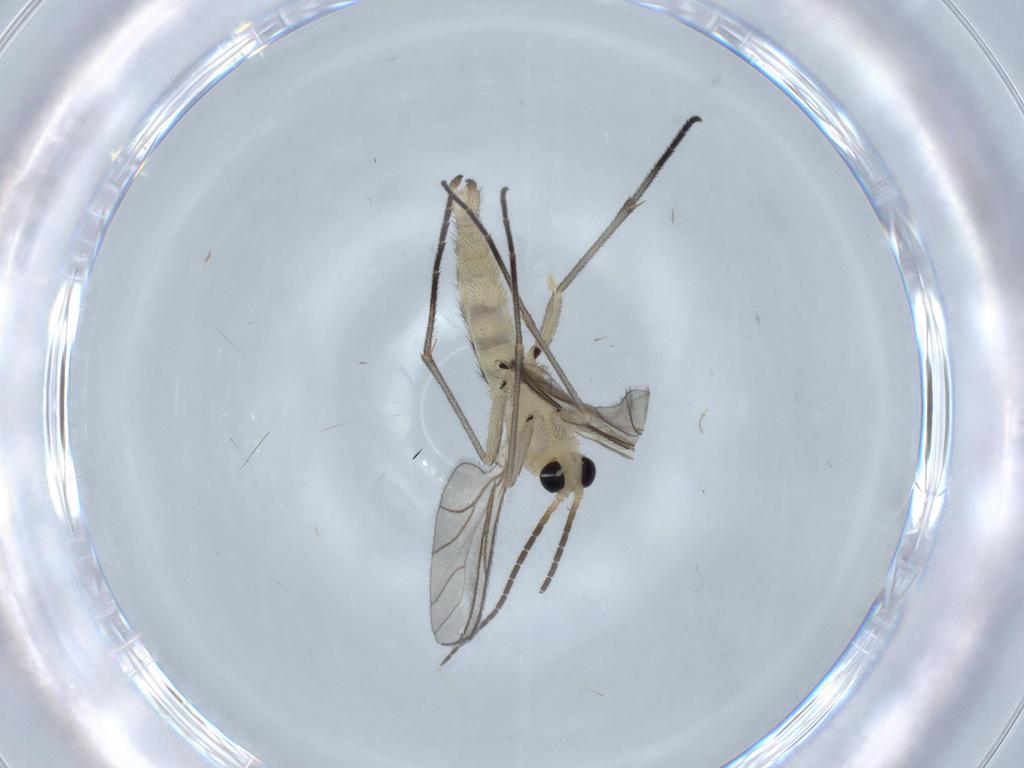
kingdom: Animalia
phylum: Arthropoda
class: Insecta
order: Diptera
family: Sciaridae
